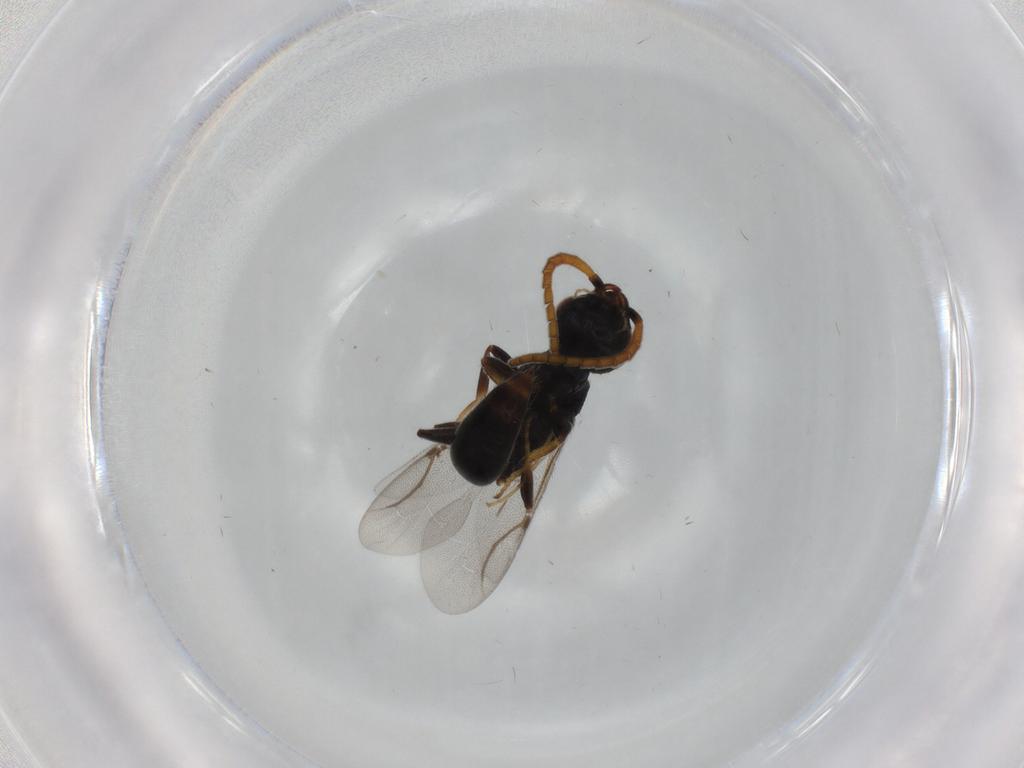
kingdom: Animalia
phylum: Arthropoda
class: Insecta
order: Hymenoptera
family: Bethylidae
